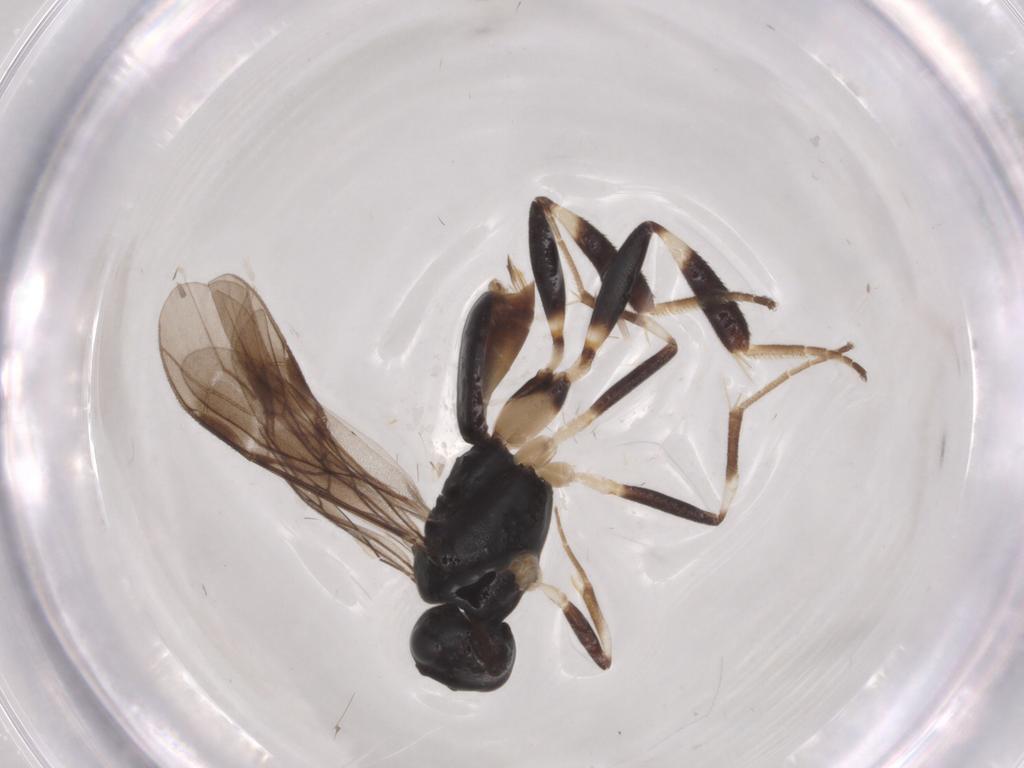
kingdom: Animalia
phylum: Arthropoda
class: Insecta
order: Hymenoptera
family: Braconidae
